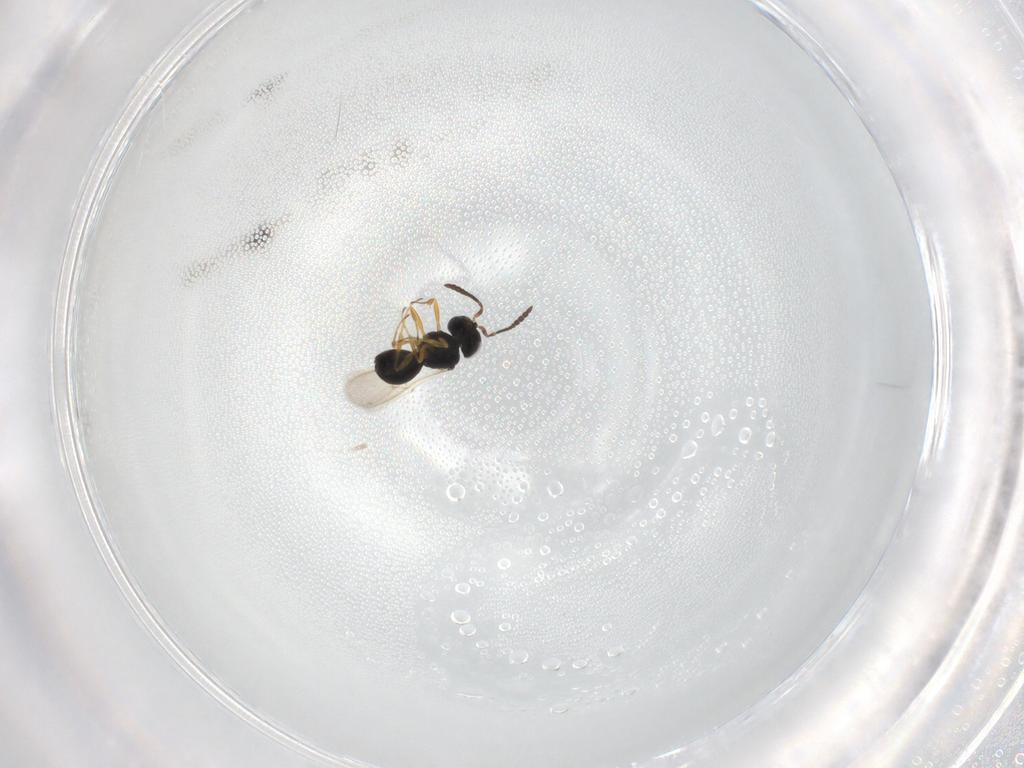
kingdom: Animalia
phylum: Arthropoda
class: Insecta
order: Hymenoptera
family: Scelionidae
